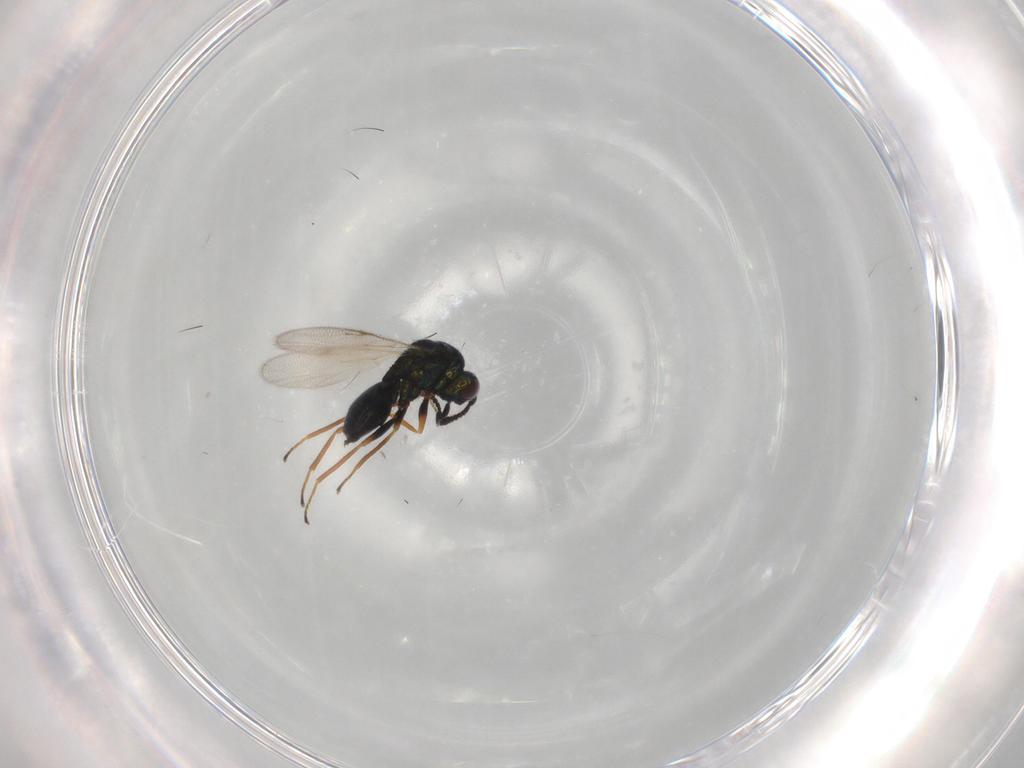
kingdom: Animalia
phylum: Arthropoda
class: Insecta
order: Hymenoptera
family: Pteromalidae
